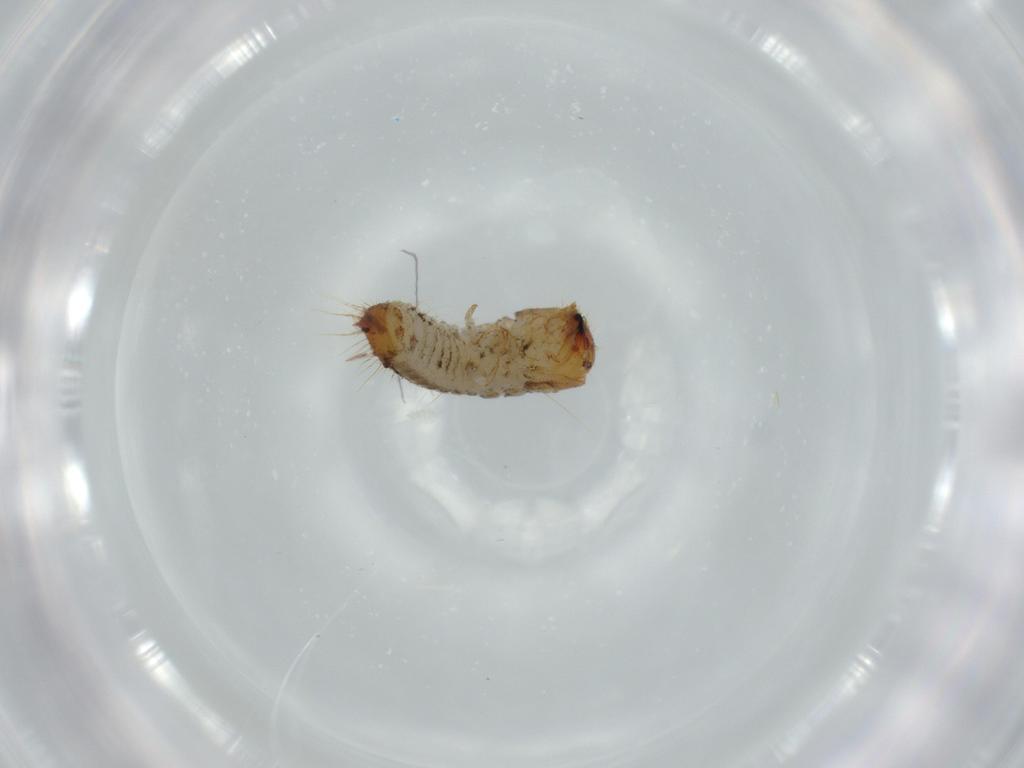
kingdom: Animalia
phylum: Arthropoda
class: Insecta
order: Coleoptera
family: Lymexylidae
